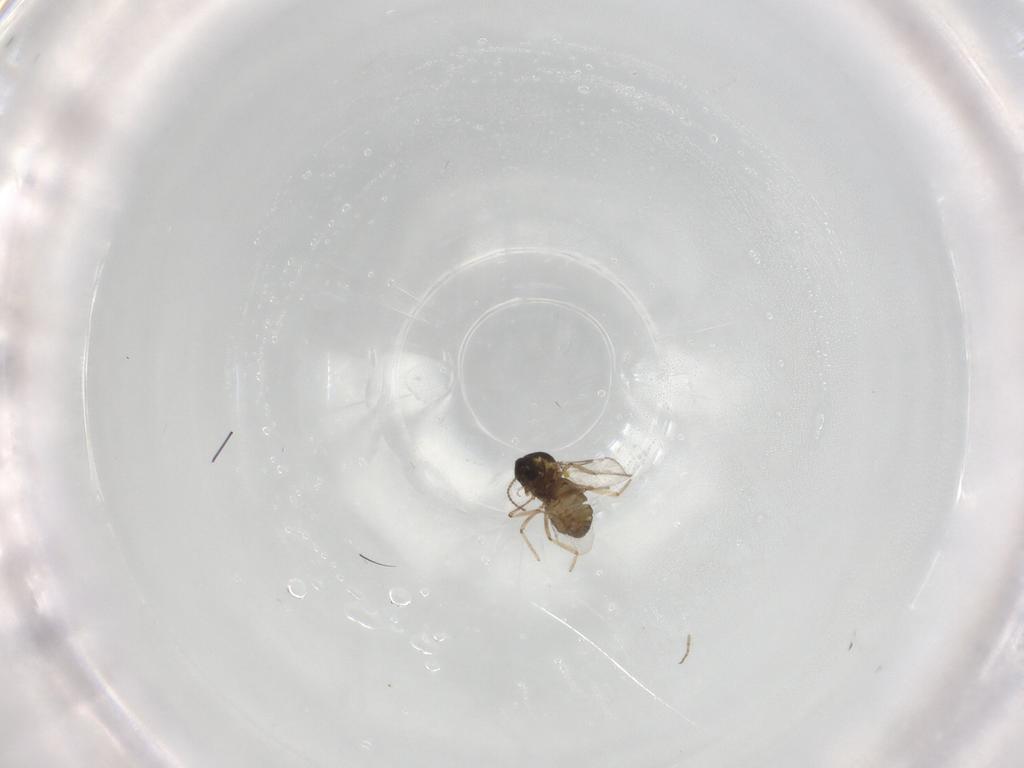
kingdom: Animalia
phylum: Arthropoda
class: Insecta
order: Diptera
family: Ceratopogonidae
